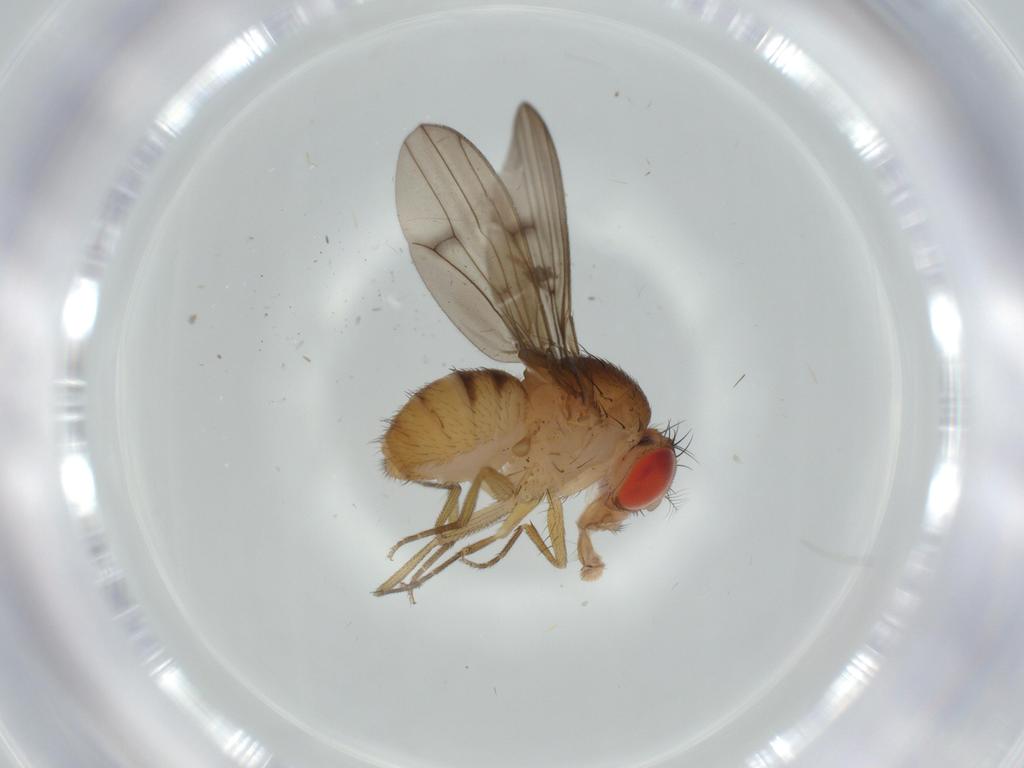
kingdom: Animalia
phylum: Arthropoda
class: Insecta
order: Diptera
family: Drosophilidae
